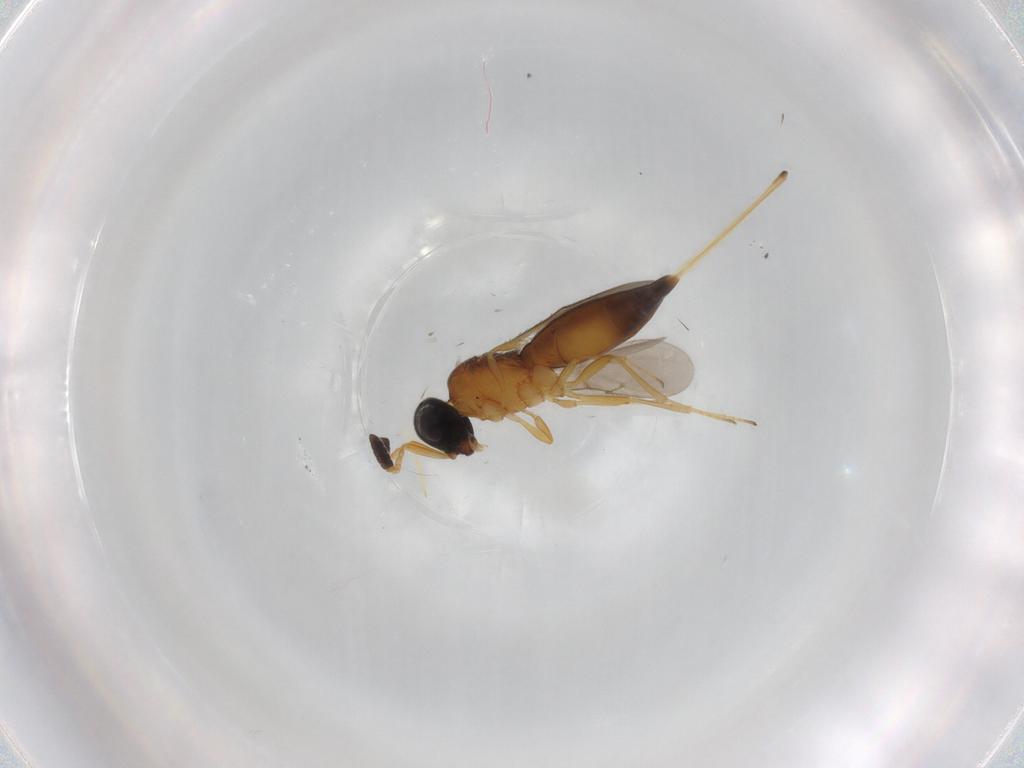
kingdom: Animalia
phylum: Arthropoda
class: Insecta
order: Hymenoptera
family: Scelionidae
